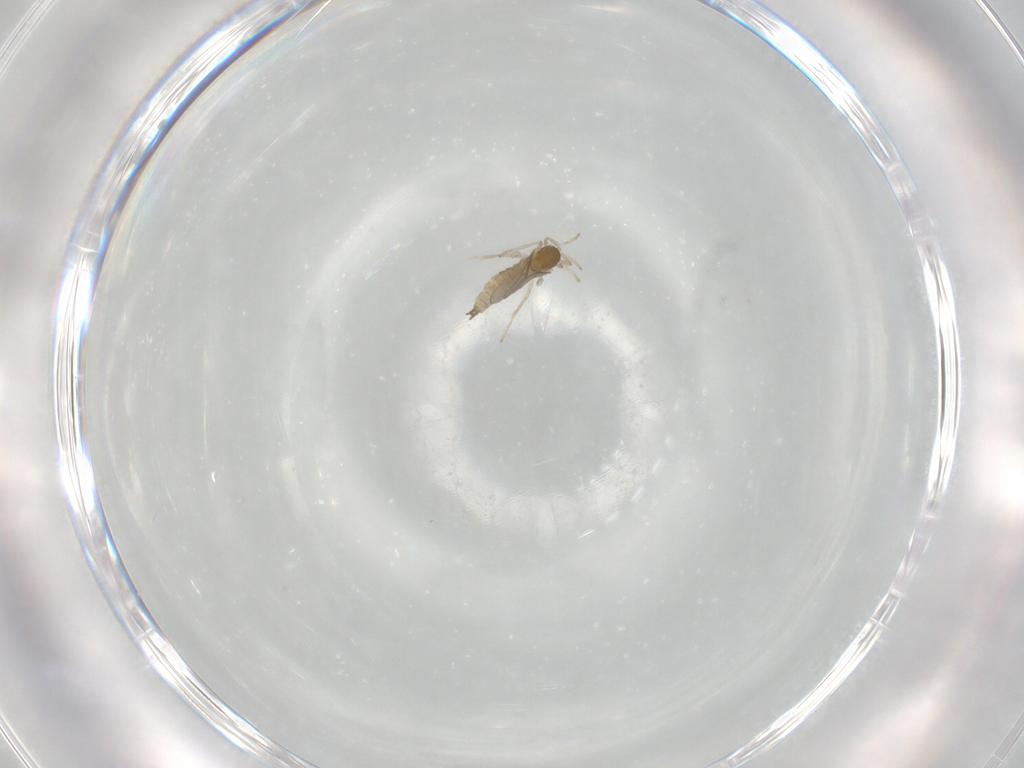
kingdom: Animalia
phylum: Arthropoda
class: Insecta
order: Diptera
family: Cecidomyiidae
